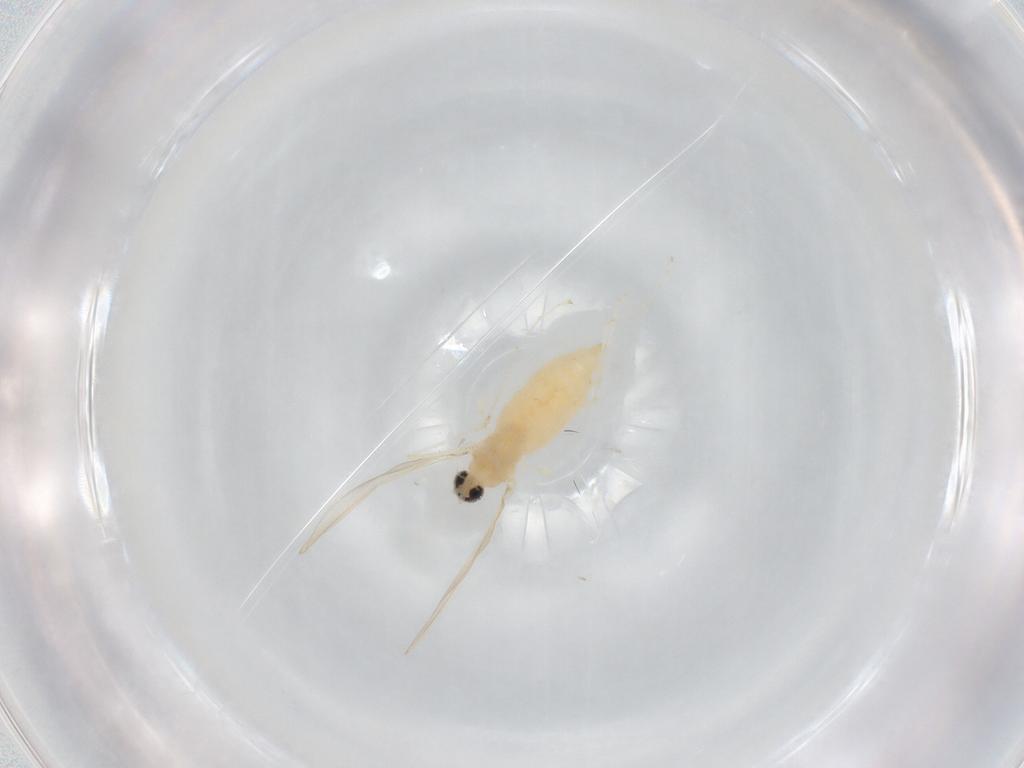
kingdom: Animalia
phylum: Arthropoda
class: Insecta
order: Diptera
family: Cecidomyiidae
